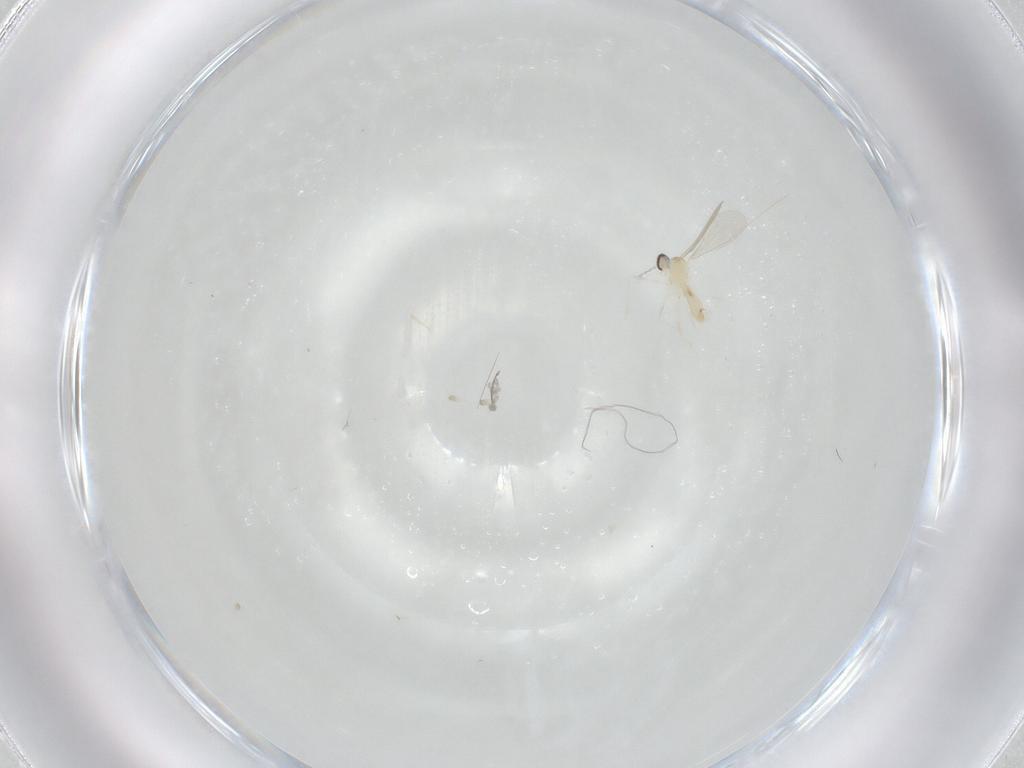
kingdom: Animalia
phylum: Arthropoda
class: Insecta
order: Diptera
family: Cecidomyiidae
